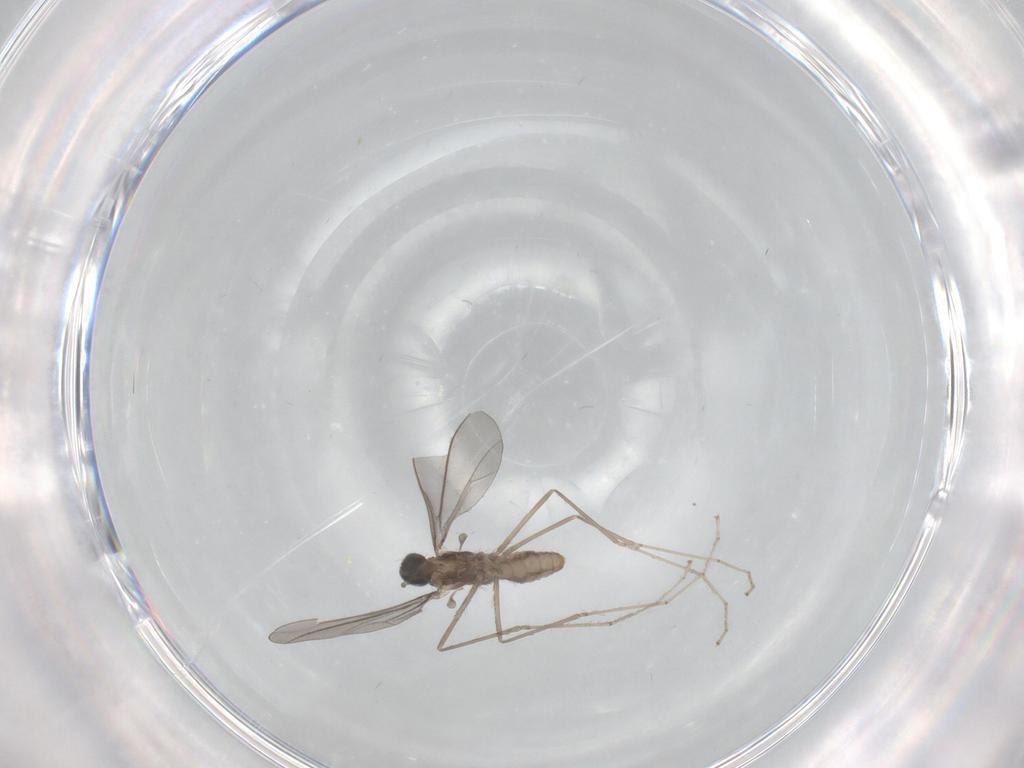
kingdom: Animalia
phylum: Arthropoda
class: Insecta
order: Diptera
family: Cecidomyiidae
